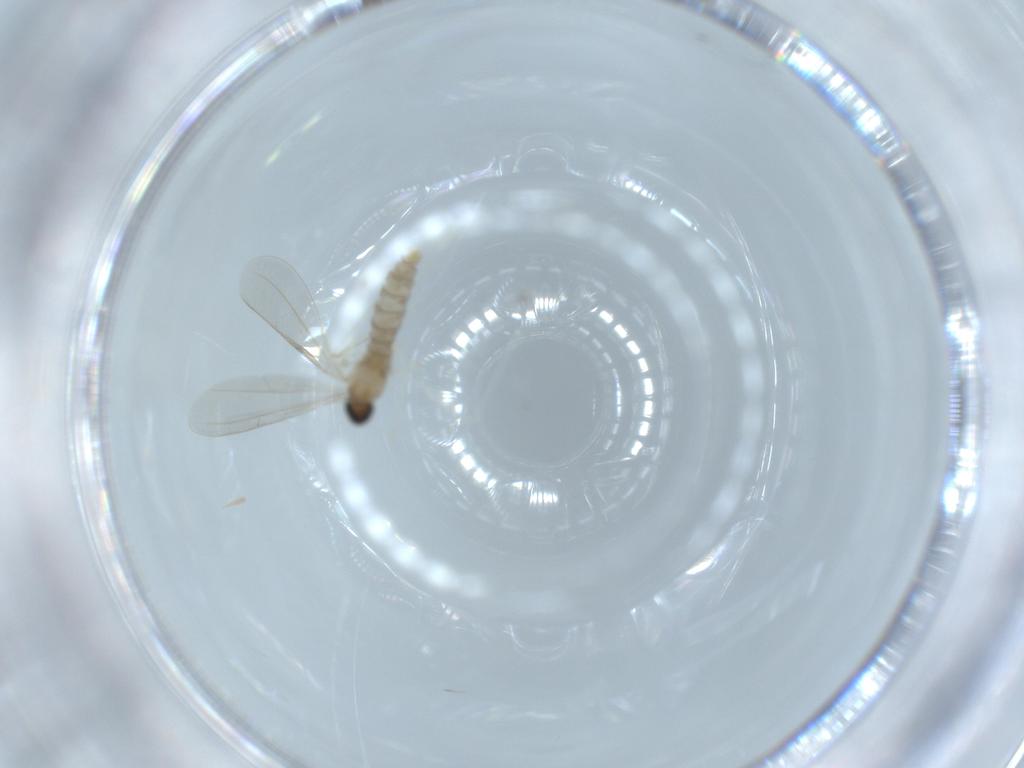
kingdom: Animalia
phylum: Arthropoda
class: Insecta
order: Diptera
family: Cecidomyiidae
